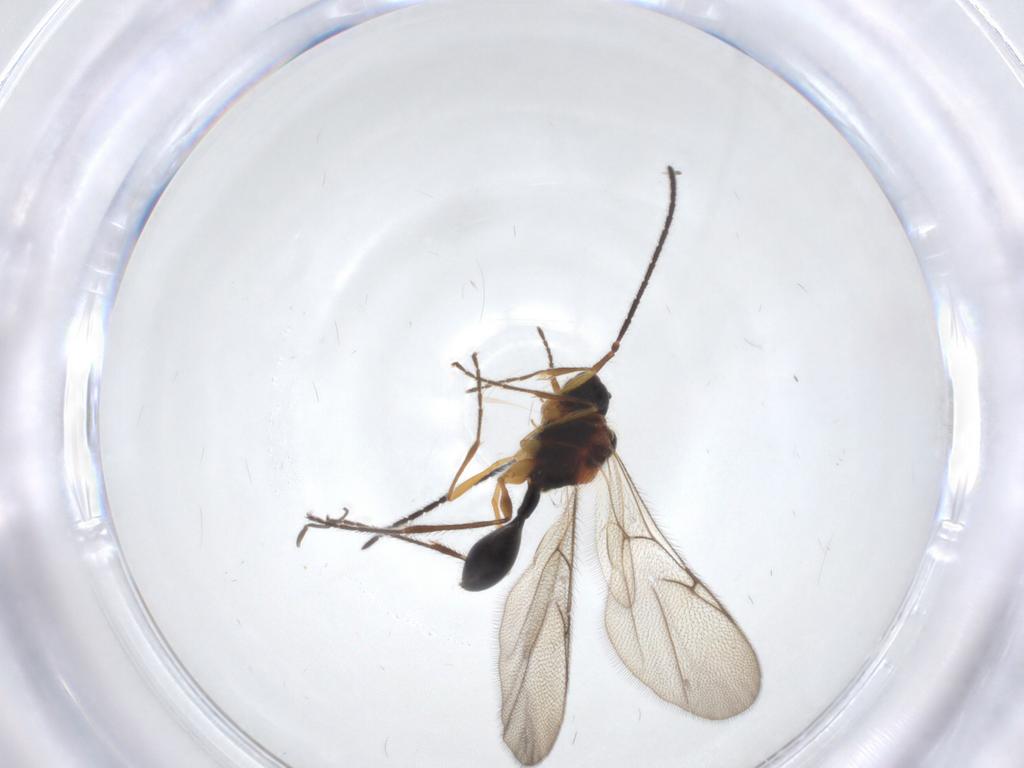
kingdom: Animalia
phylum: Arthropoda
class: Insecta
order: Hymenoptera
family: Diapriidae
